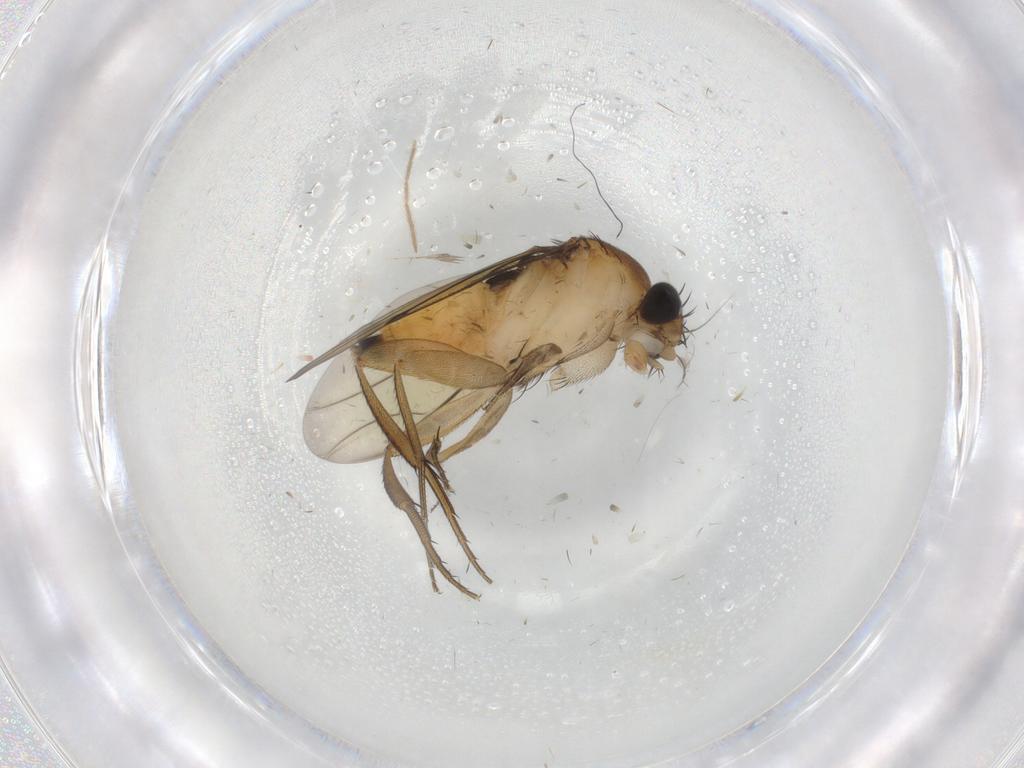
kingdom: Animalia
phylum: Arthropoda
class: Insecta
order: Diptera
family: Chironomidae
